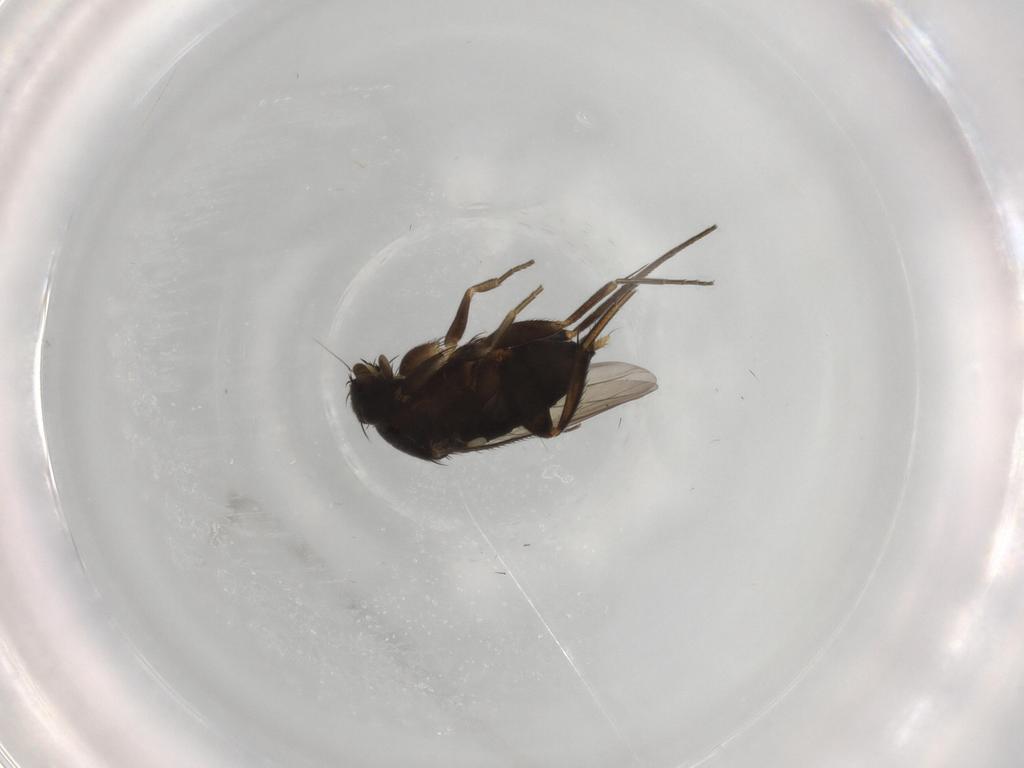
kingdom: Animalia
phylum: Arthropoda
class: Insecta
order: Diptera
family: Phoridae
